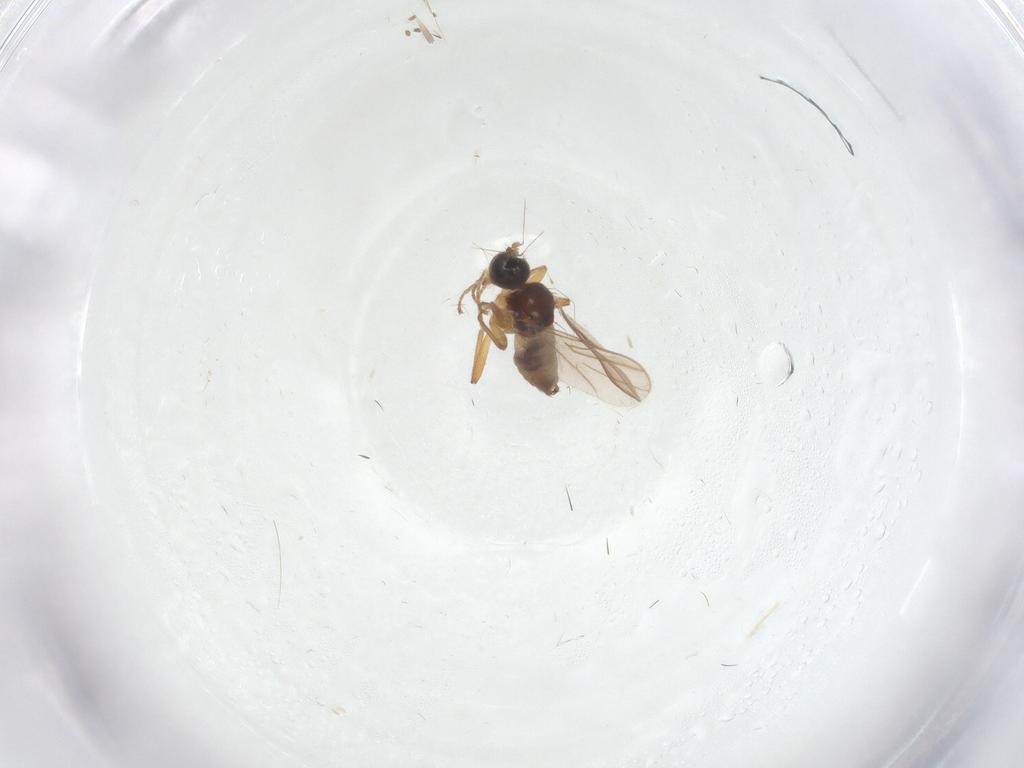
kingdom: Animalia
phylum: Arthropoda
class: Insecta
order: Diptera
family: Hybotidae
